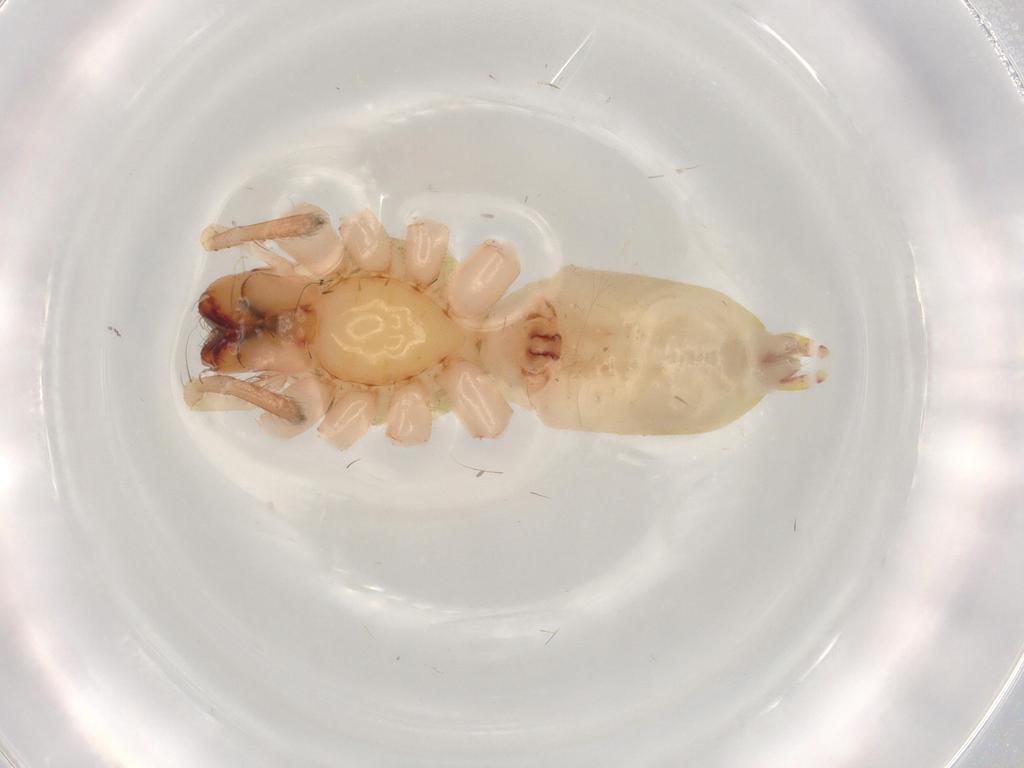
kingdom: Animalia
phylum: Arthropoda
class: Arachnida
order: Araneae
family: Anyphaenidae
